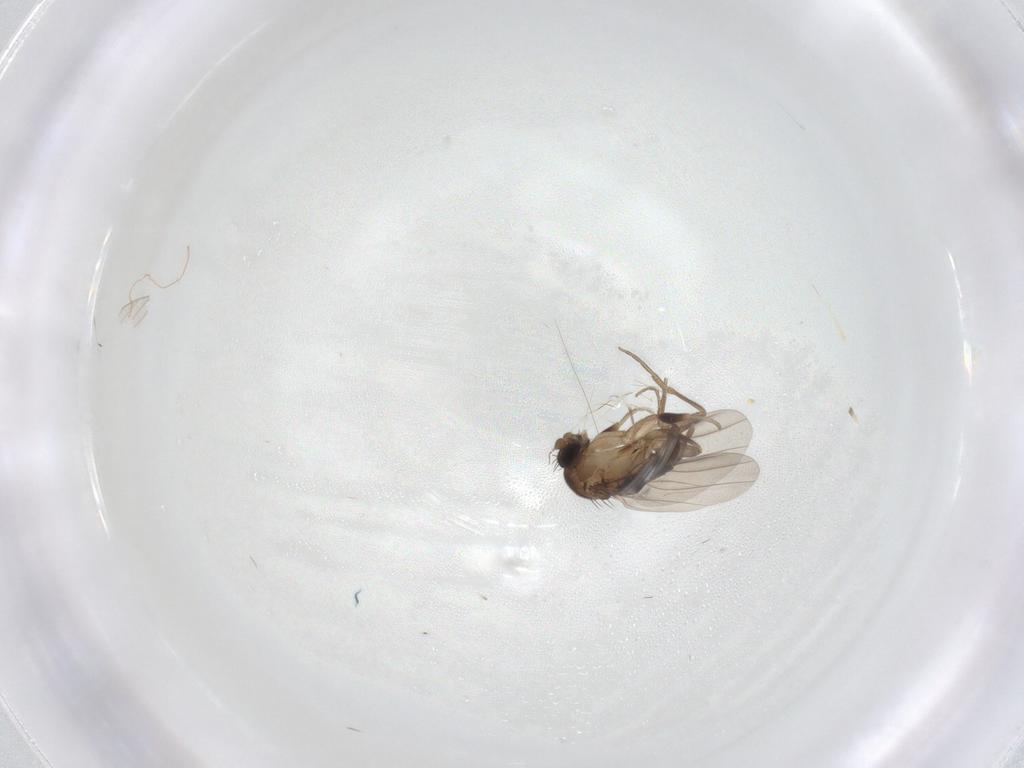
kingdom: Animalia
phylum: Arthropoda
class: Insecta
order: Diptera
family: Phoridae
